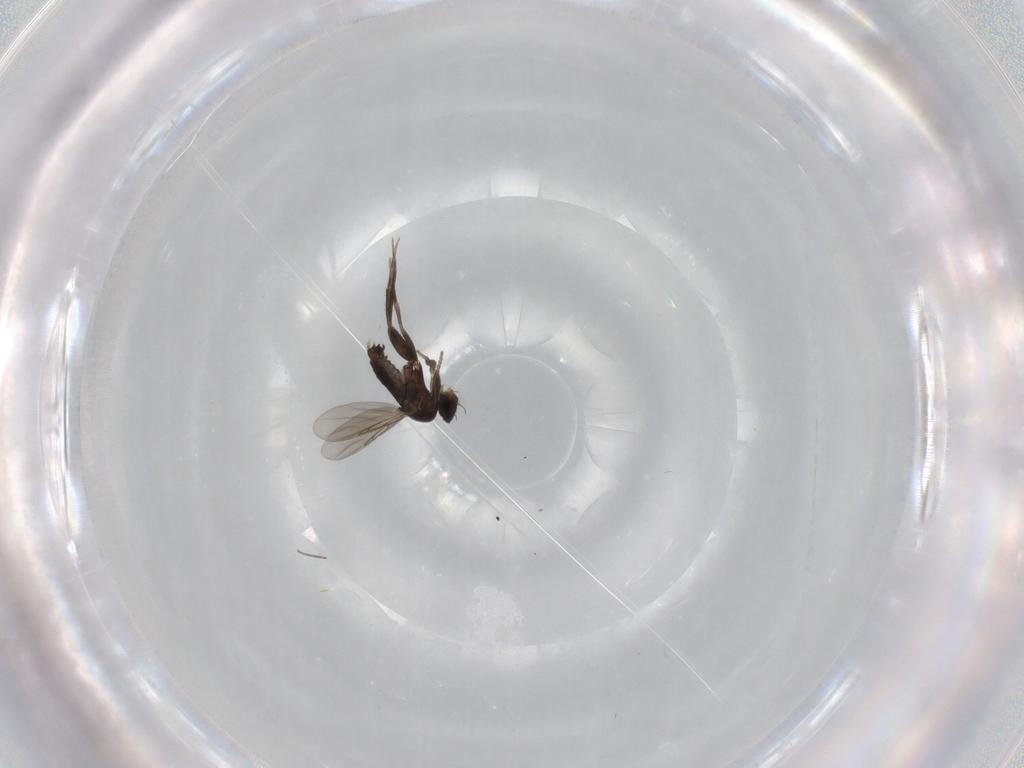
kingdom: Animalia
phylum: Arthropoda
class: Insecta
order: Diptera
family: Phoridae
